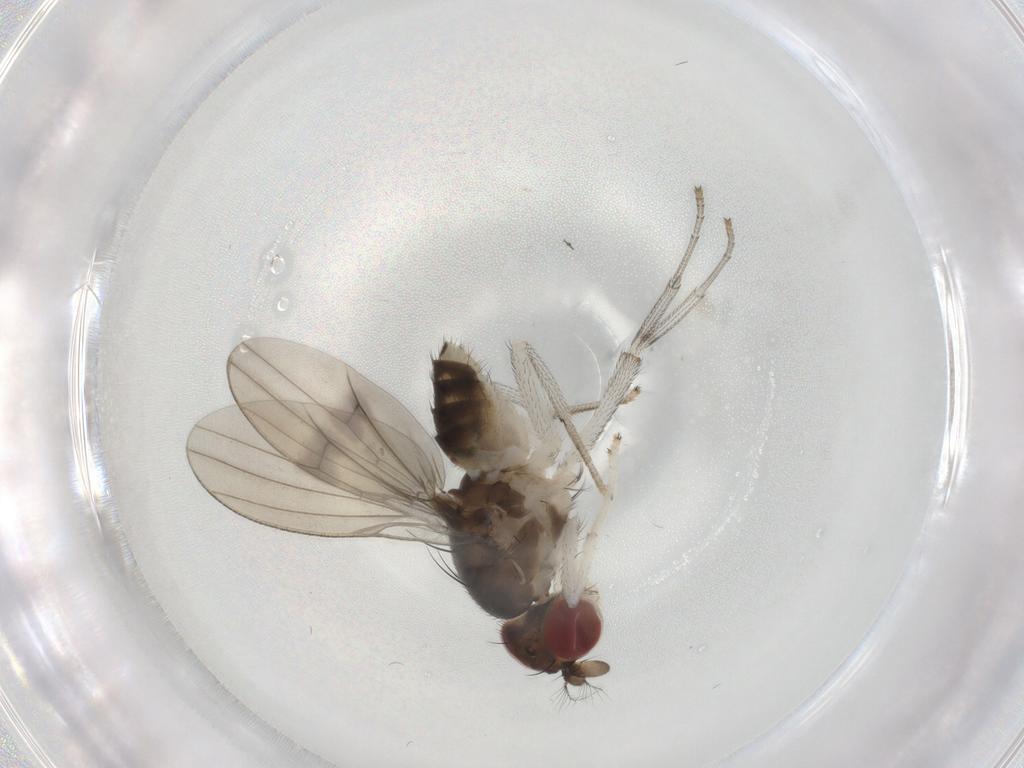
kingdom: Animalia
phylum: Arthropoda
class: Insecta
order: Diptera
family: Lauxaniidae
